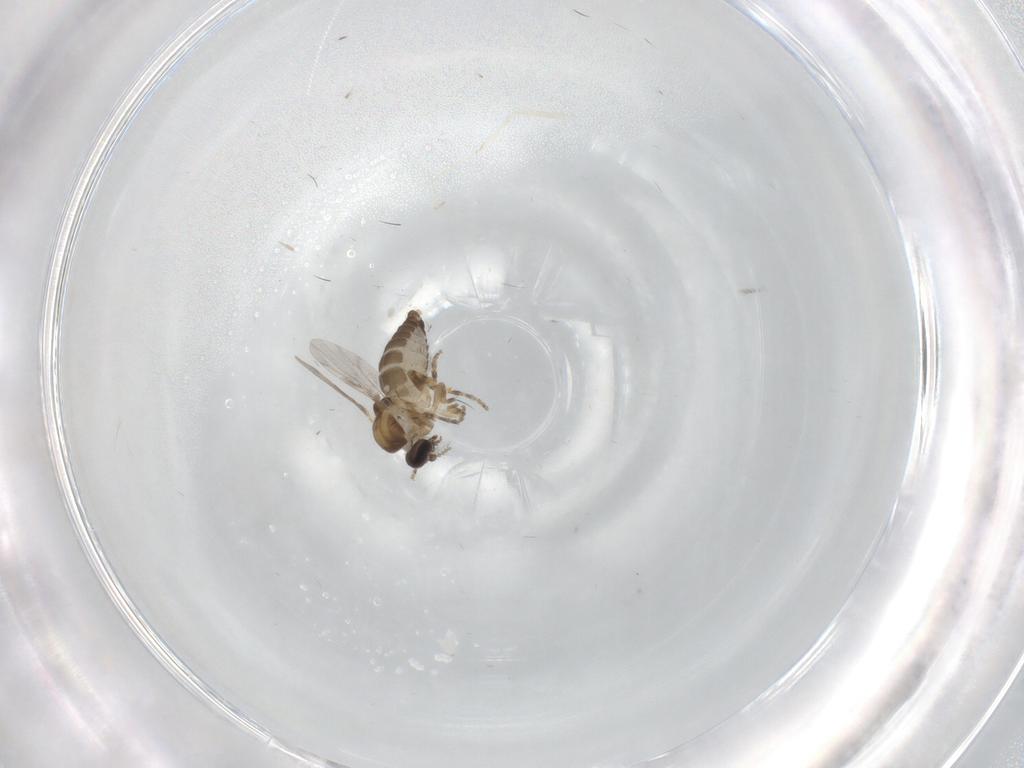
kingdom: Animalia
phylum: Arthropoda
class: Insecta
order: Diptera
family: Ceratopogonidae
